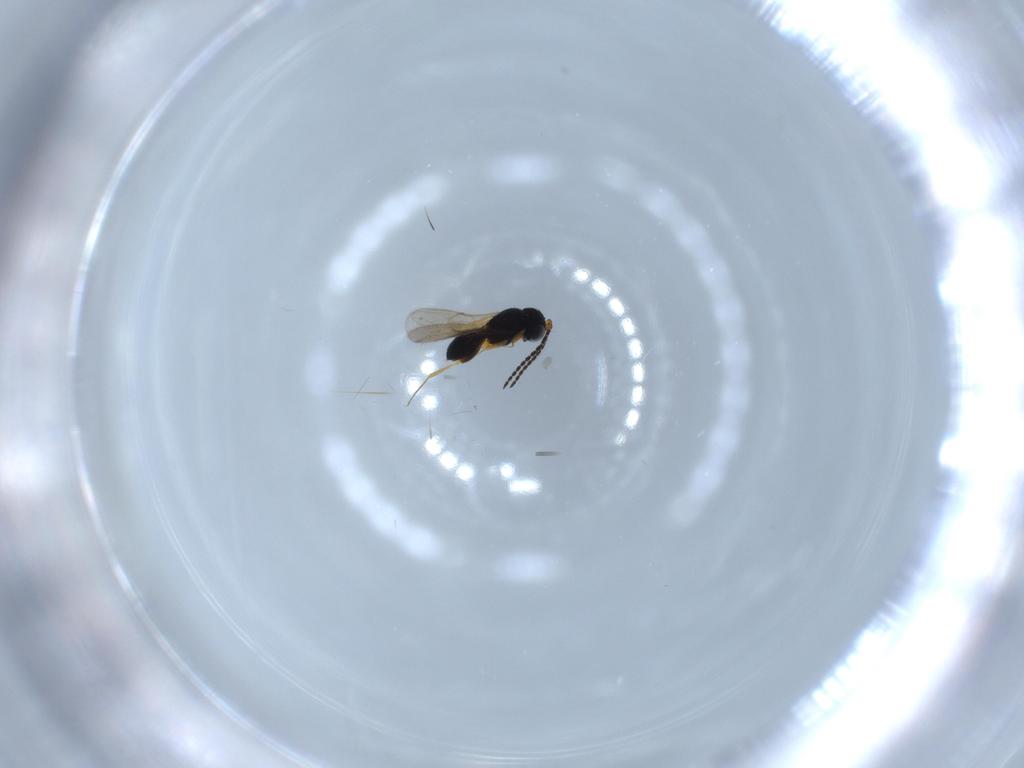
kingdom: Animalia
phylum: Arthropoda
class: Insecta
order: Hymenoptera
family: Scelionidae
